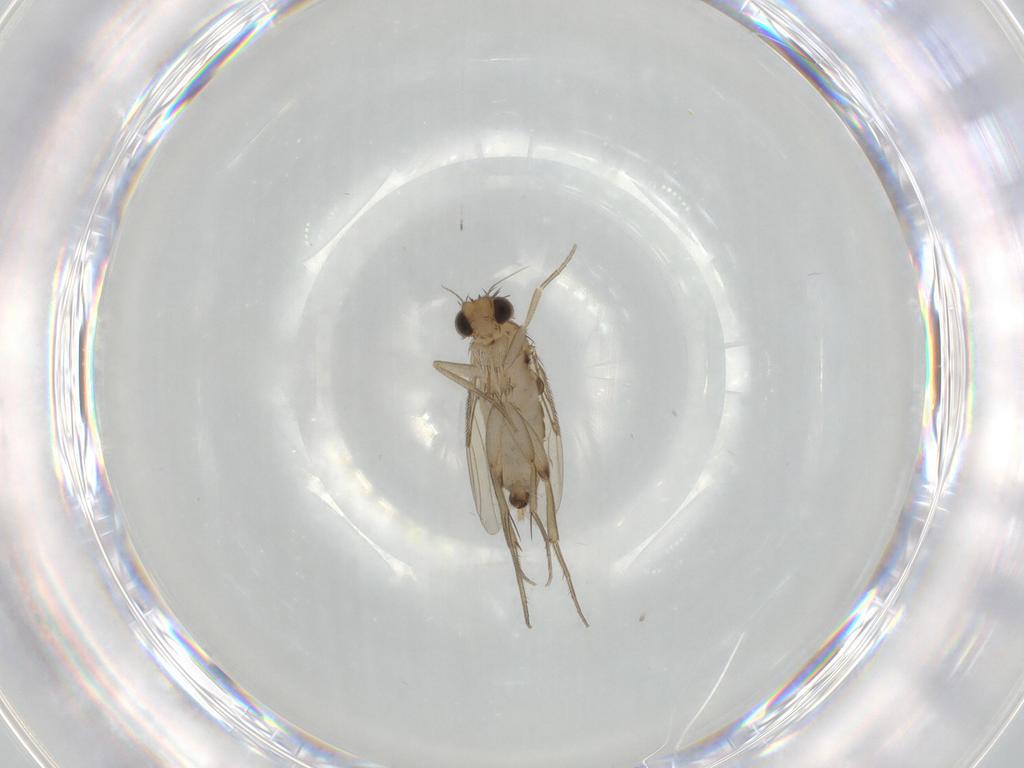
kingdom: Animalia
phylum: Arthropoda
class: Insecta
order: Diptera
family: Phoridae
